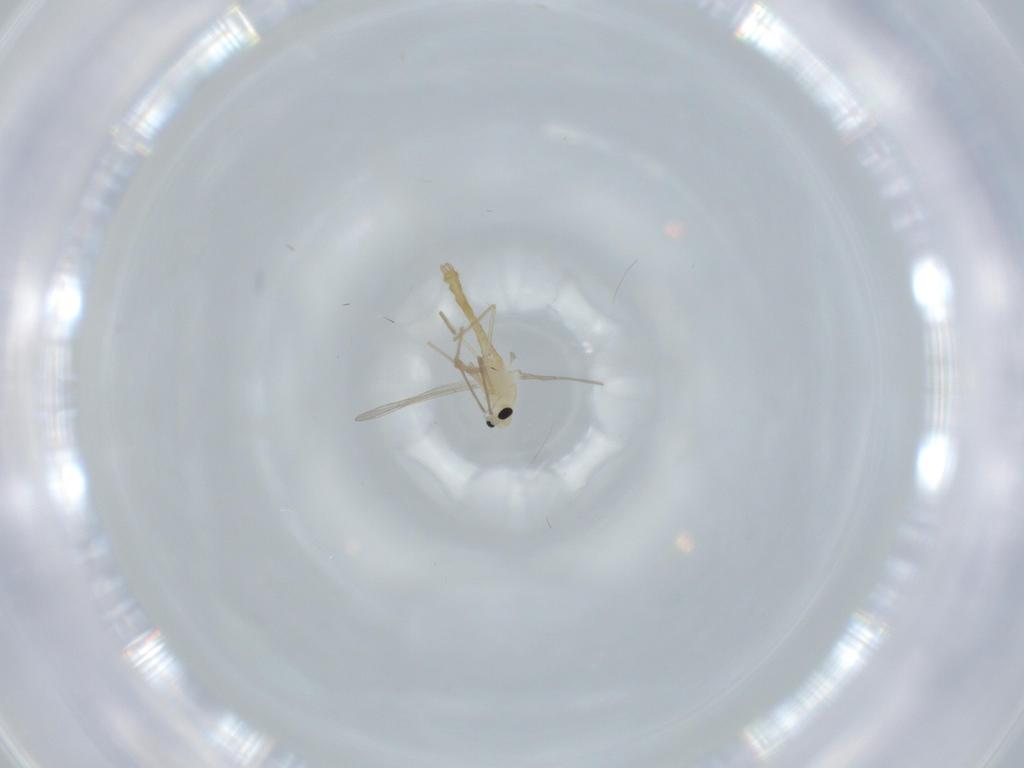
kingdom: Animalia
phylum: Arthropoda
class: Insecta
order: Diptera
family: Chironomidae
